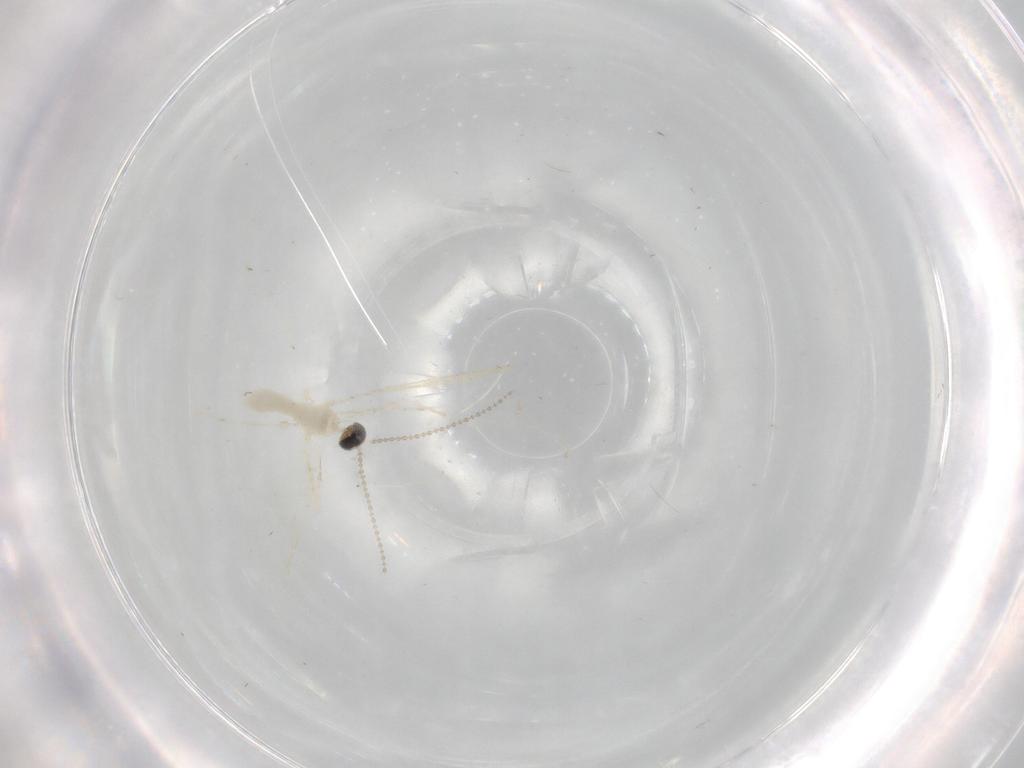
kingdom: Animalia
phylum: Arthropoda
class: Insecta
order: Diptera
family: Cecidomyiidae
